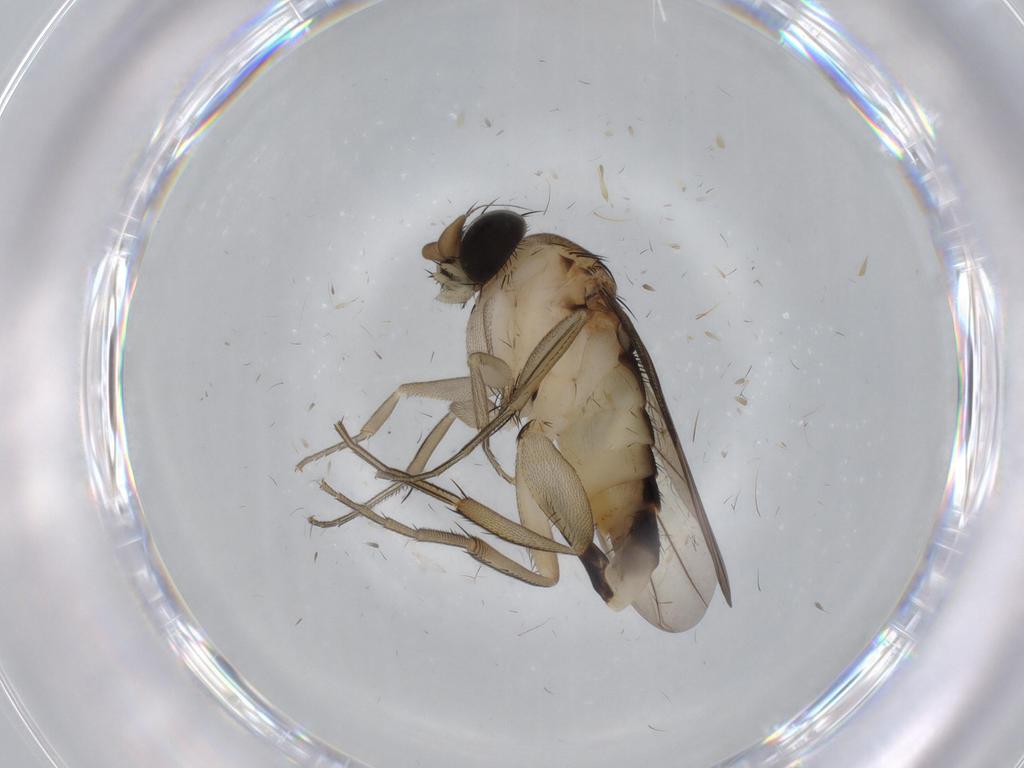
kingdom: Animalia
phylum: Arthropoda
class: Insecta
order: Diptera
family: Phoridae
